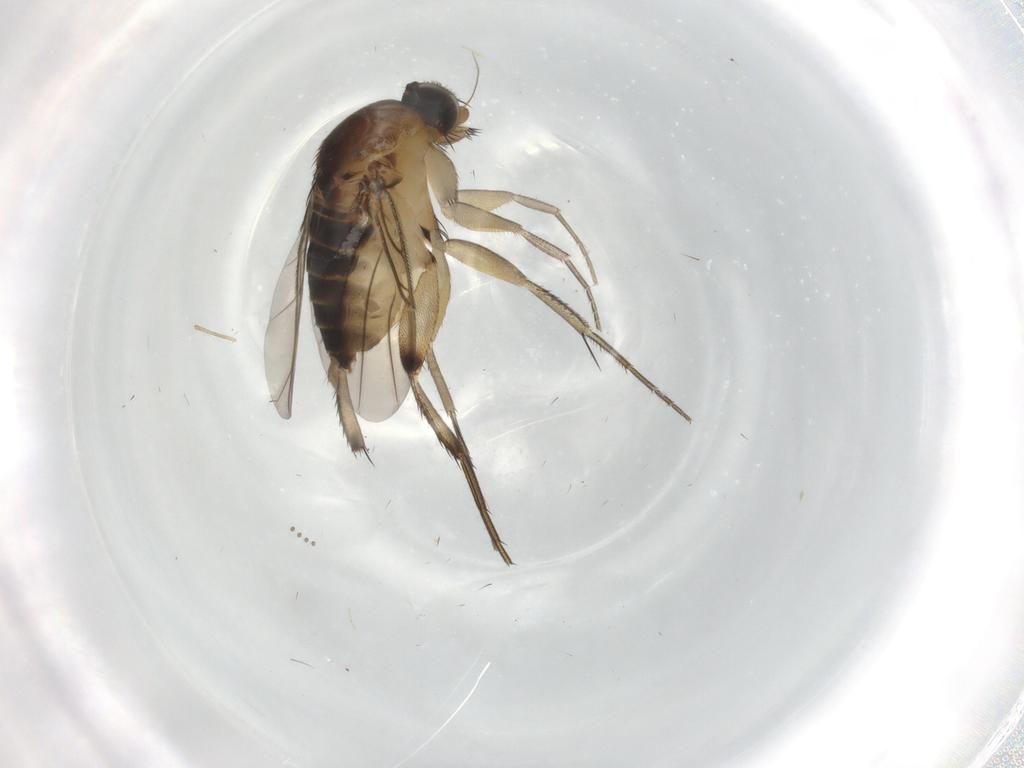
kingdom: Animalia
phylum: Arthropoda
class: Insecta
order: Diptera
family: Phoridae
